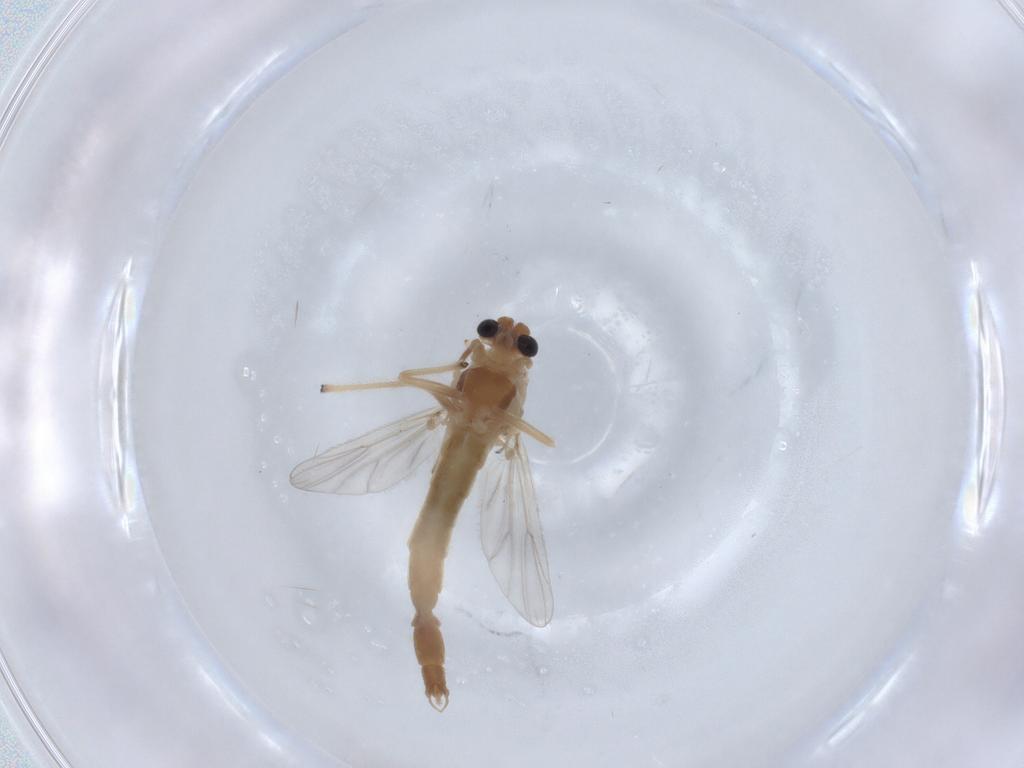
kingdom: Animalia
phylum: Arthropoda
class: Insecta
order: Diptera
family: Chironomidae
